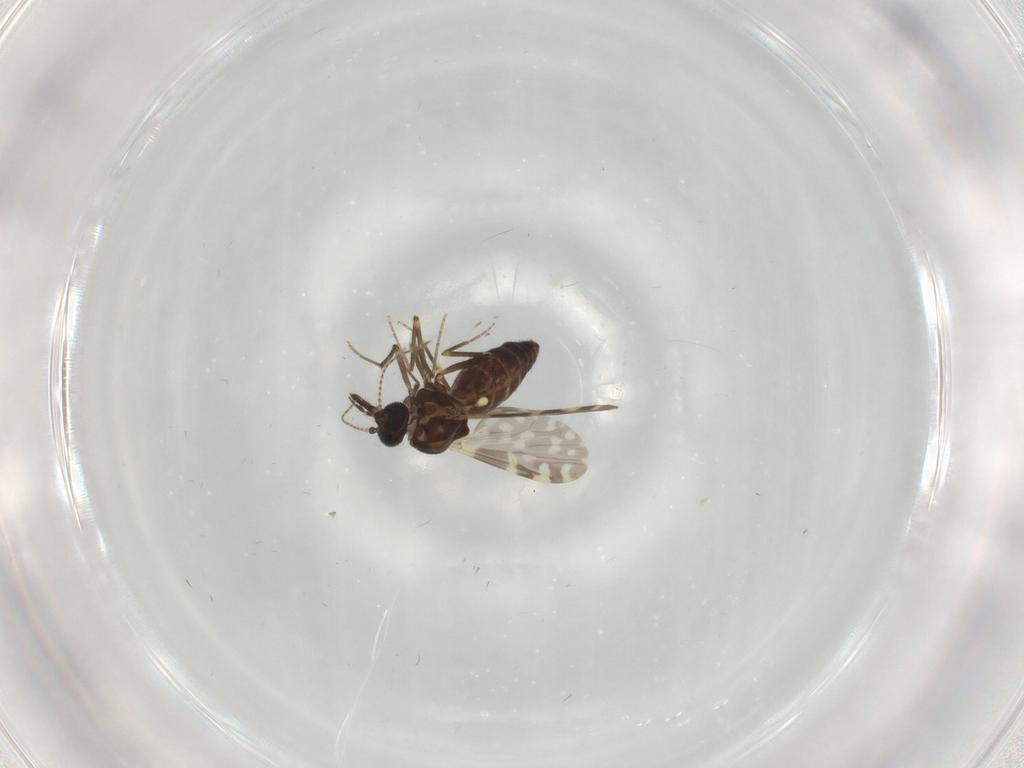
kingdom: Animalia
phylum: Arthropoda
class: Insecta
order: Diptera
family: Ceratopogonidae
